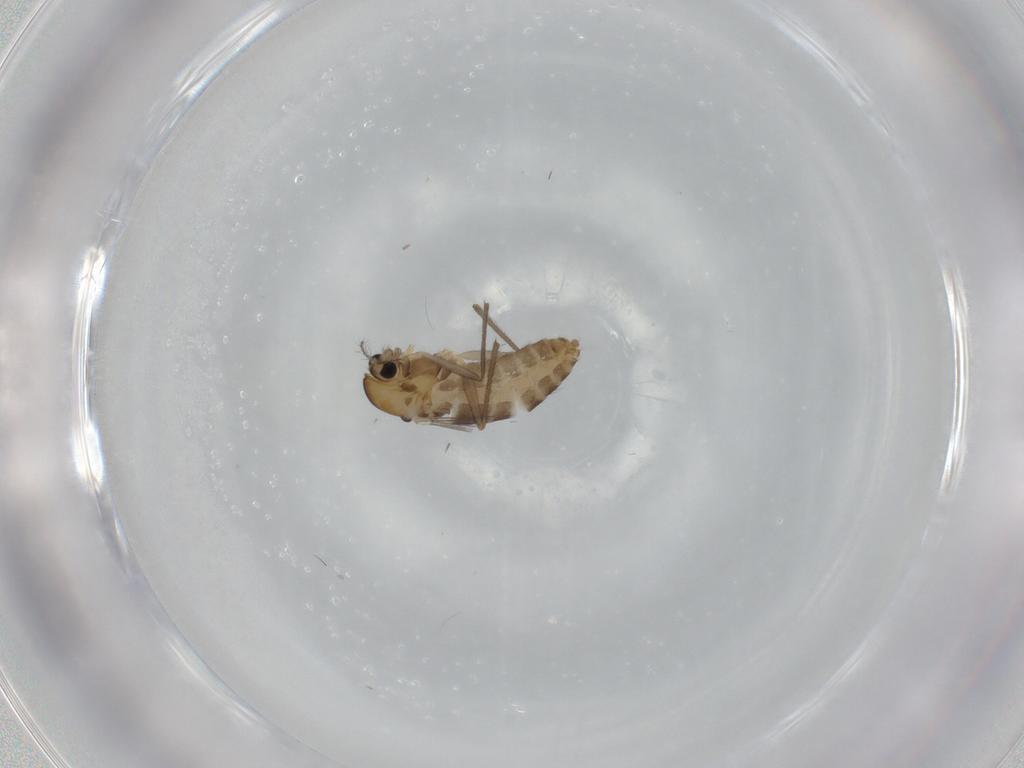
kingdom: Animalia
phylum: Arthropoda
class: Insecta
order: Diptera
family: Chironomidae
